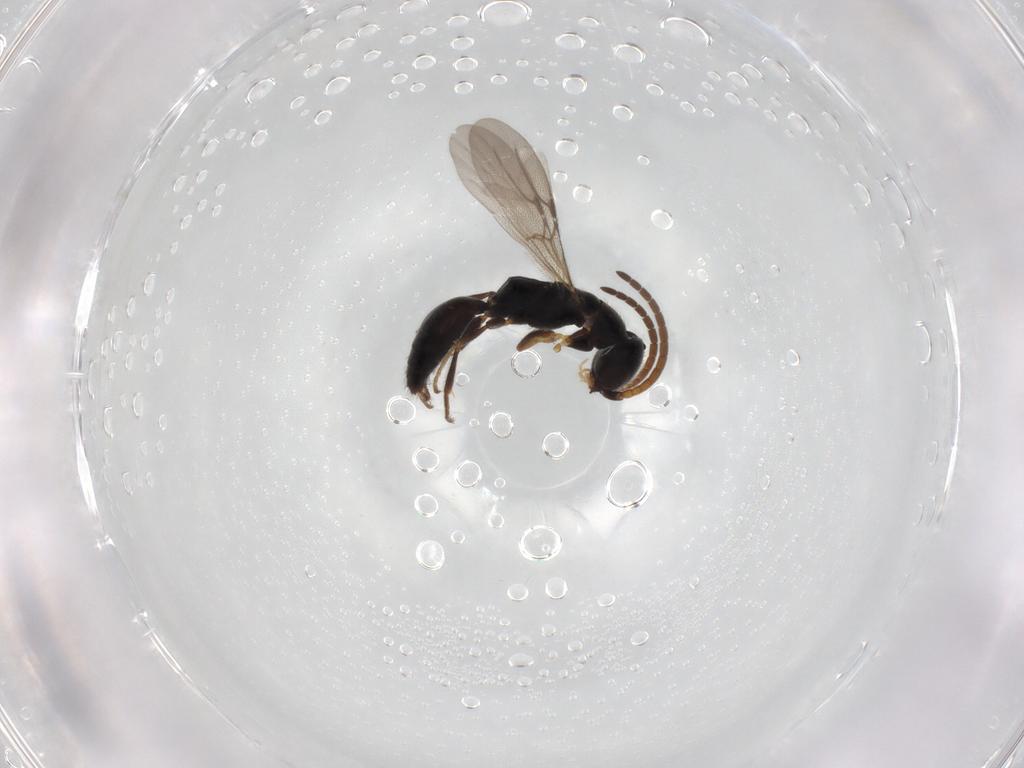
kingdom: Animalia
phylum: Arthropoda
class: Insecta
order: Hymenoptera
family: Bethylidae
